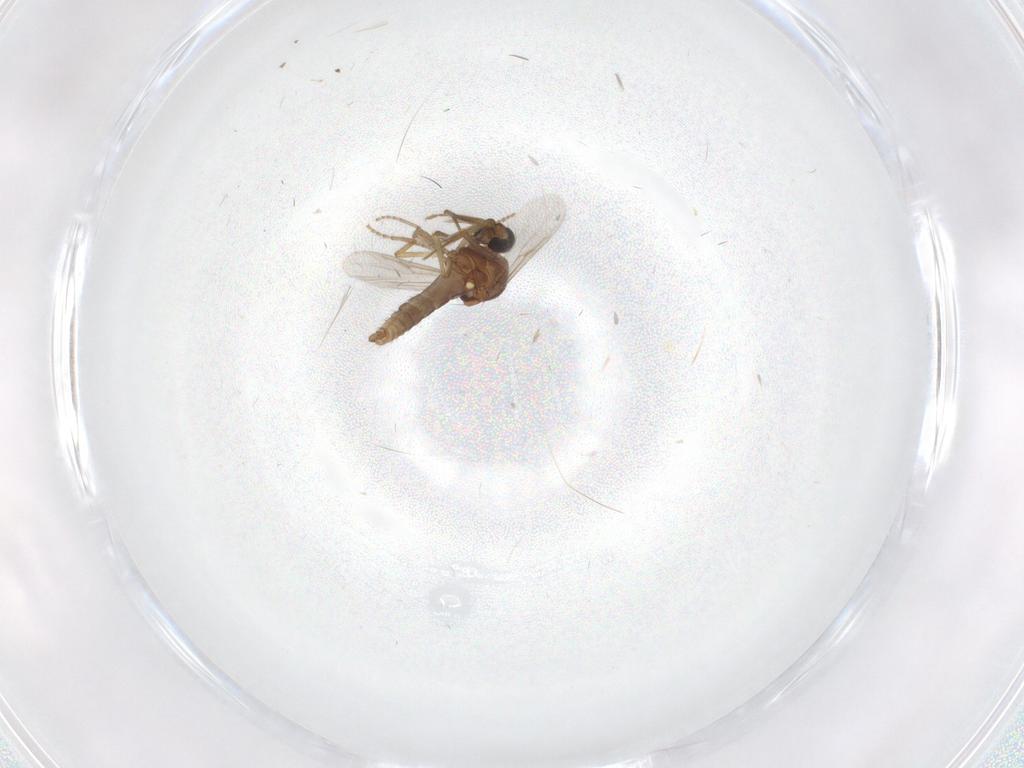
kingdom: Animalia
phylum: Arthropoda
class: Insecta
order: Diptera
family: Ceratopogonidae
